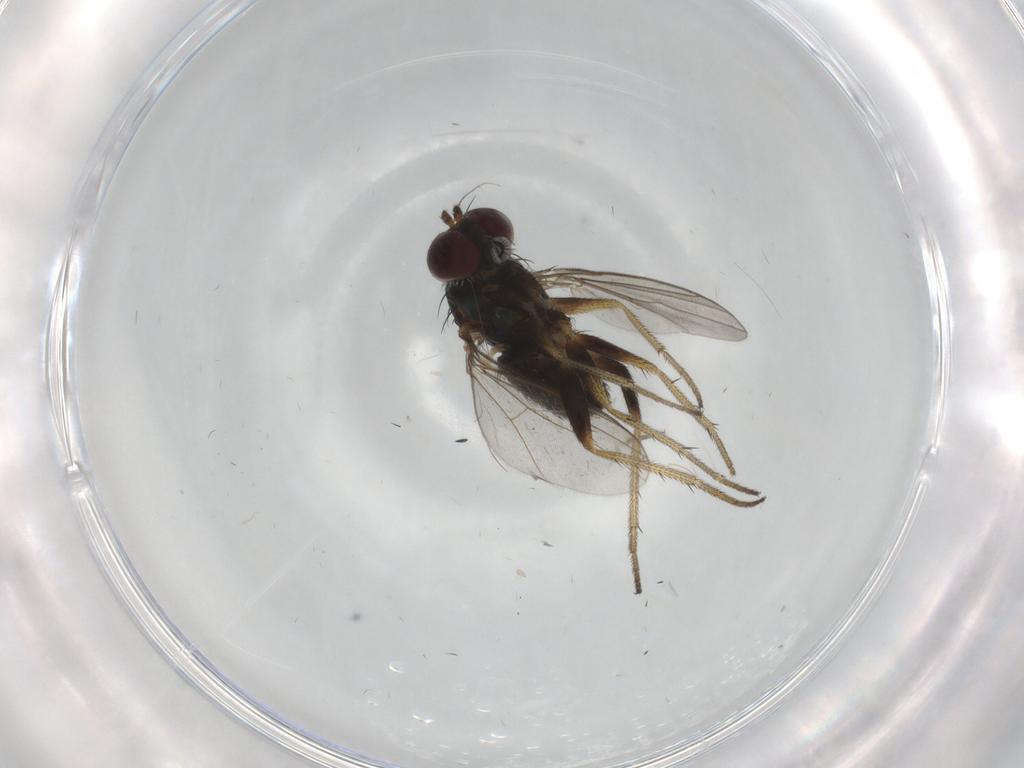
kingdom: Animalia
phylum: Arthropoda
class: Insecta
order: Diptera
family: Dolichopodidae
